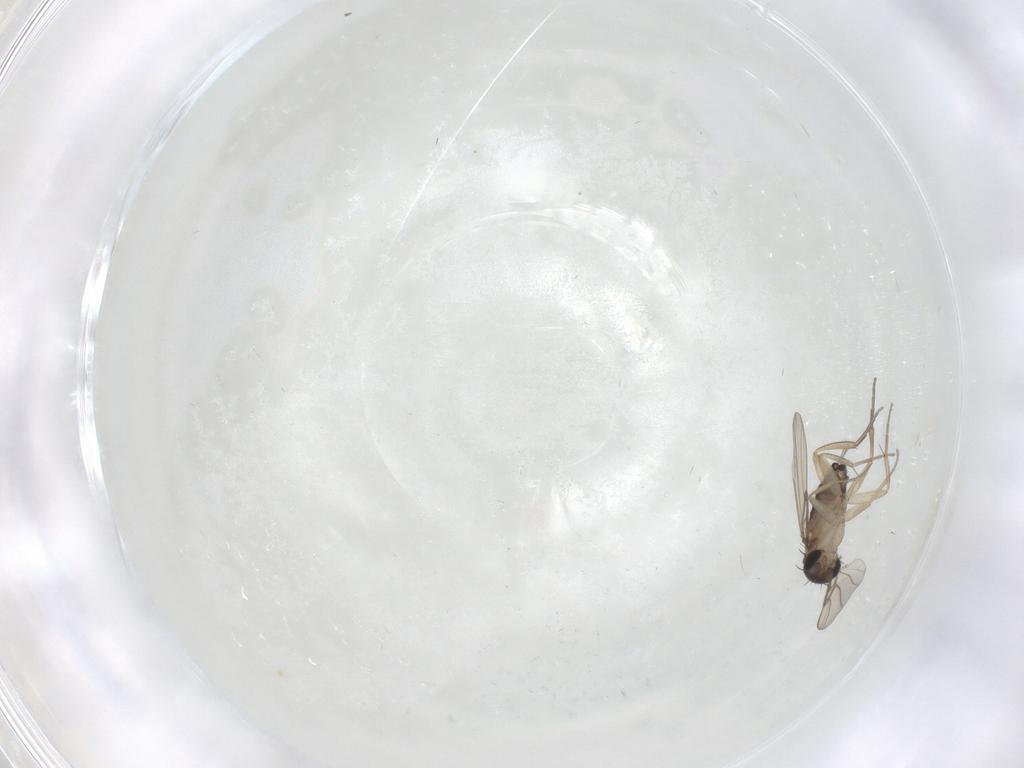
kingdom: Animalia
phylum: Arthropoda
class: Insecta
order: Diptera
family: Phoridae
